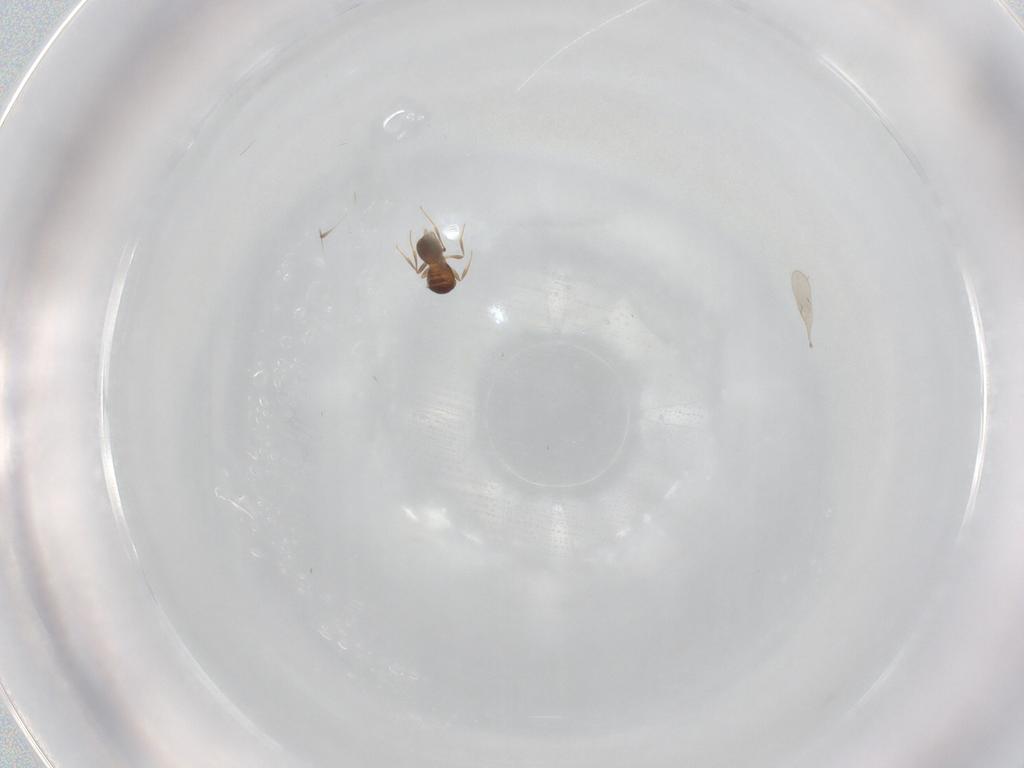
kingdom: Animalia
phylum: Arthropoda
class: Insecta
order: Hymenoptera
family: Scelionidae
